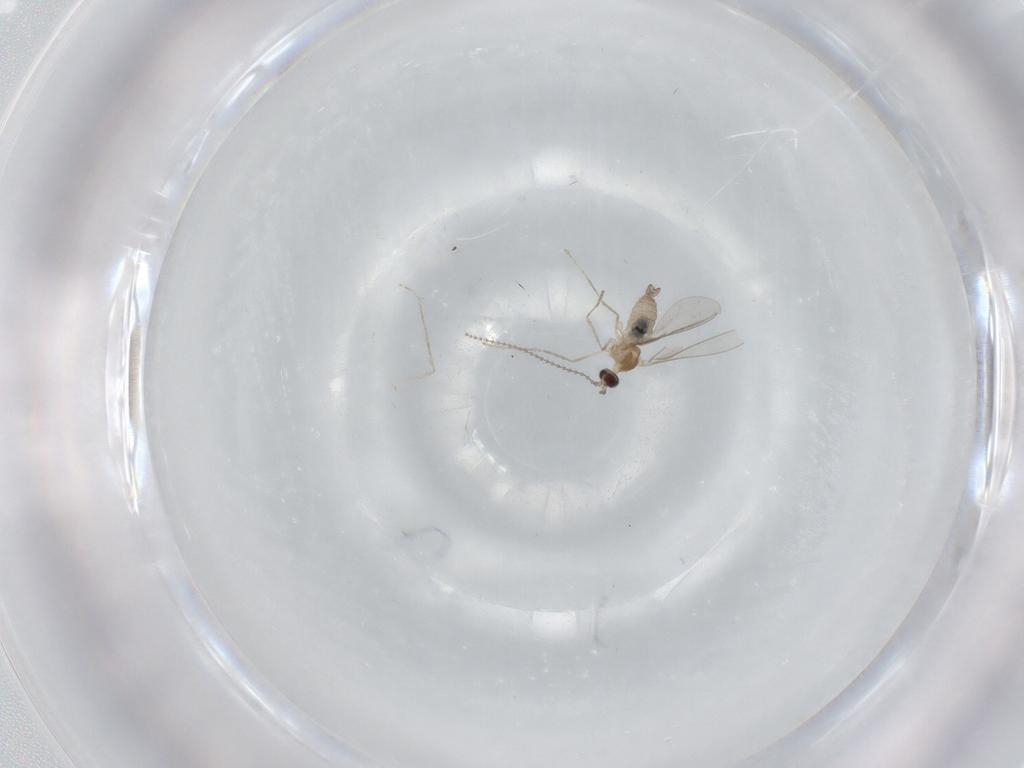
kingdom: Animalia
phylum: Arthropoda
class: Insecta
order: Diptera
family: Cecidomyiidae
